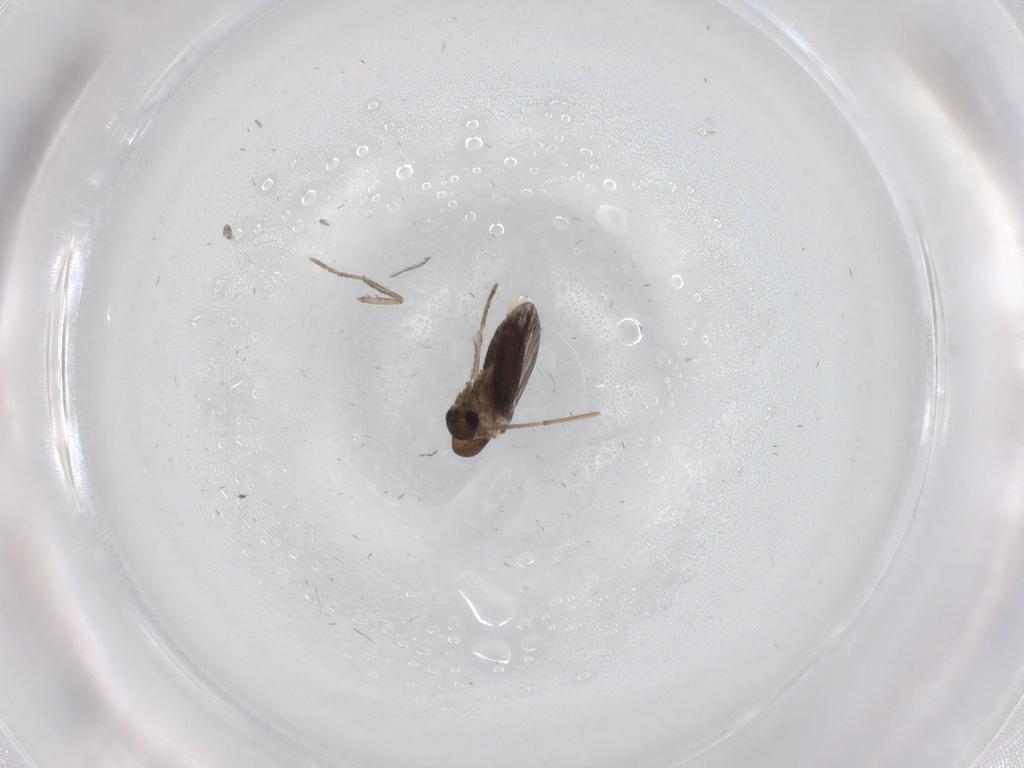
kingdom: Animalia
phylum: Arthropoda
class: Insecta
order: Diptera
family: Phoridae
